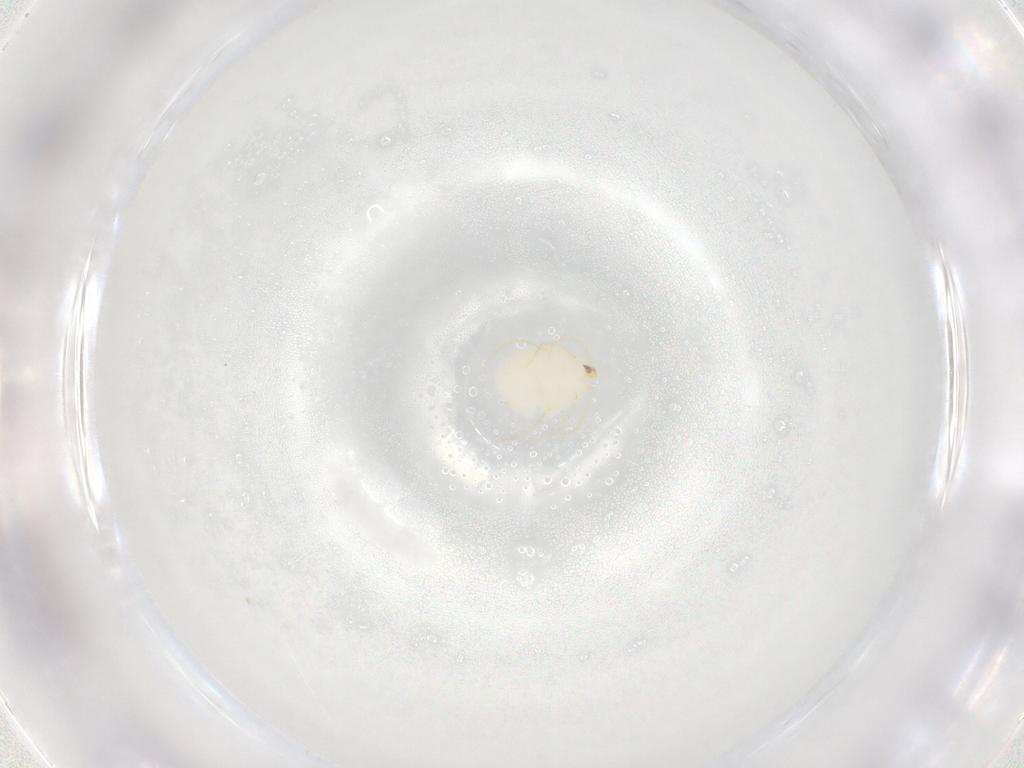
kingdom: Animalia
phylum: Arthropoda
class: Arachnida
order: Trombidiformes
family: Erythraeidae
